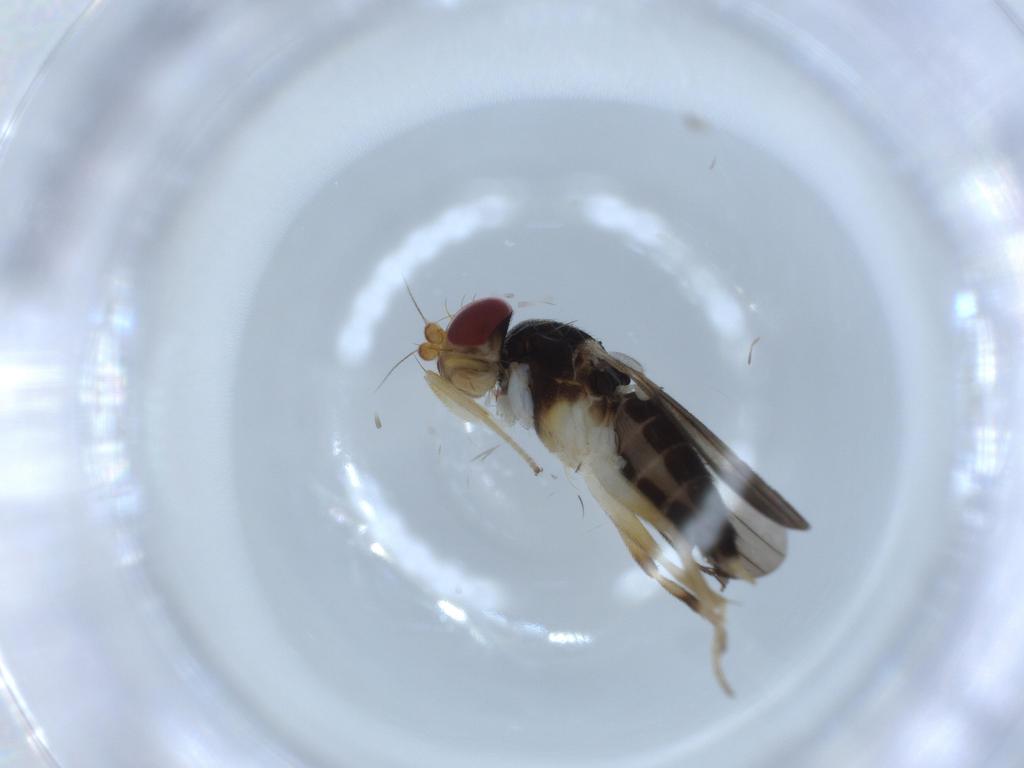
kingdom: Animalia
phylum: Arthropoda
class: Insecta
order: Diptera
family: Clusiidae
